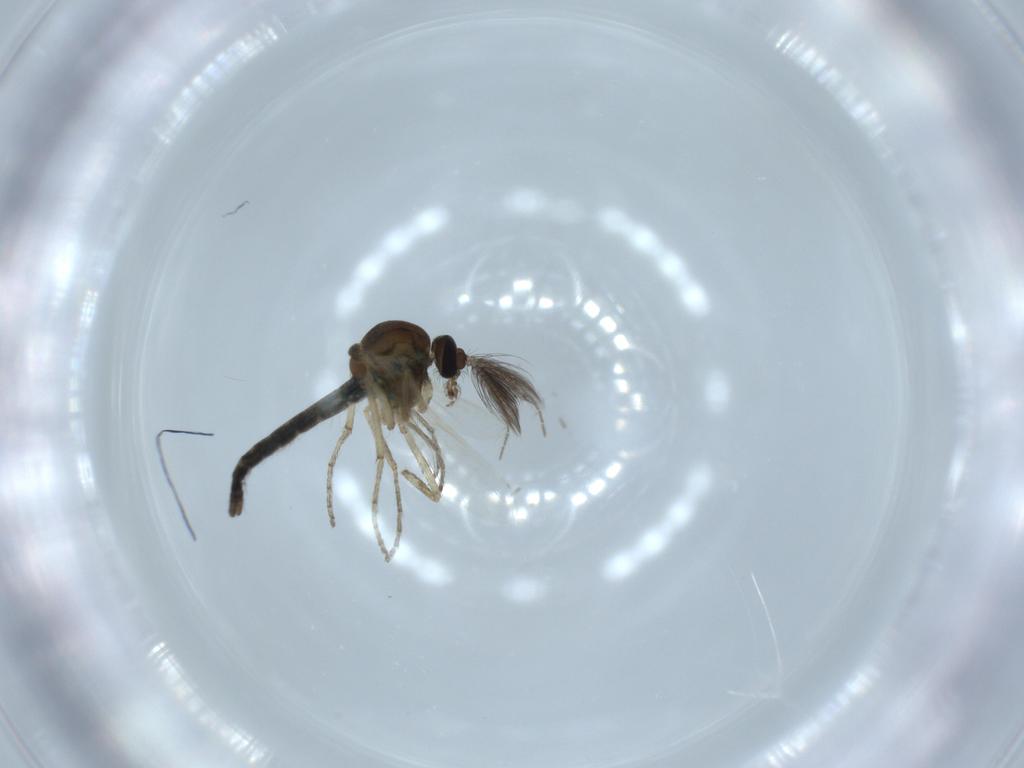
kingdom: Animalia
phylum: Arthropoda
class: Insecta
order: Diptera
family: Ceratopogonidae
